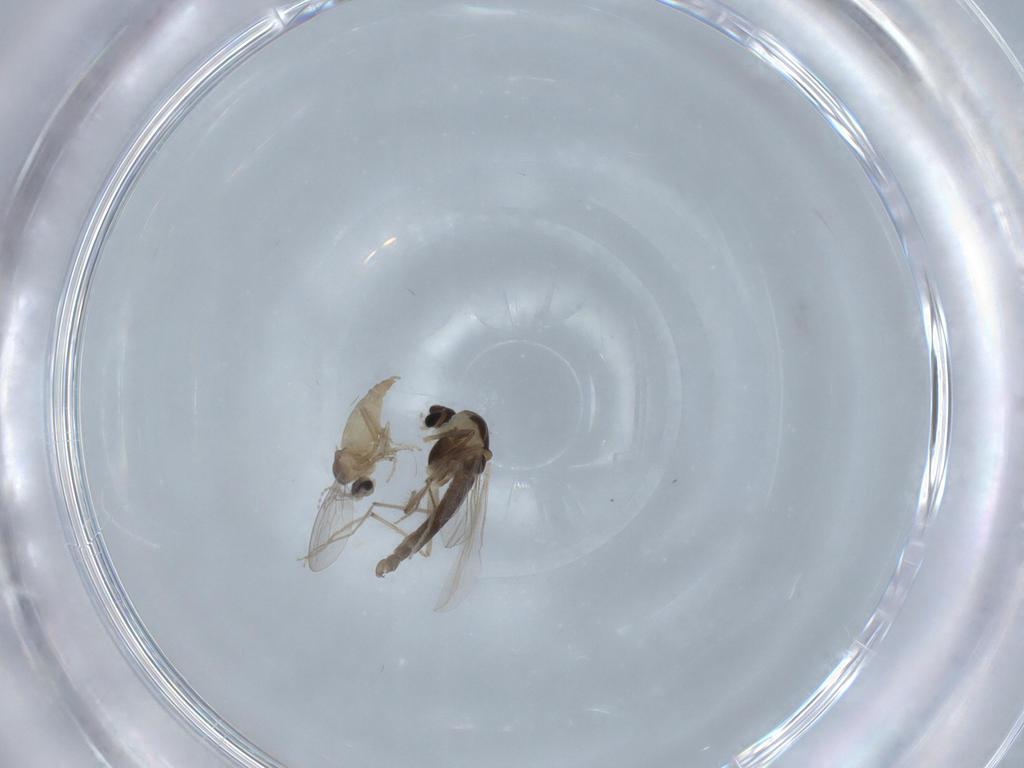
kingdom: Animalia
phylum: Arthropoda
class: Insecta
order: Diptera
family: Chironomidae
